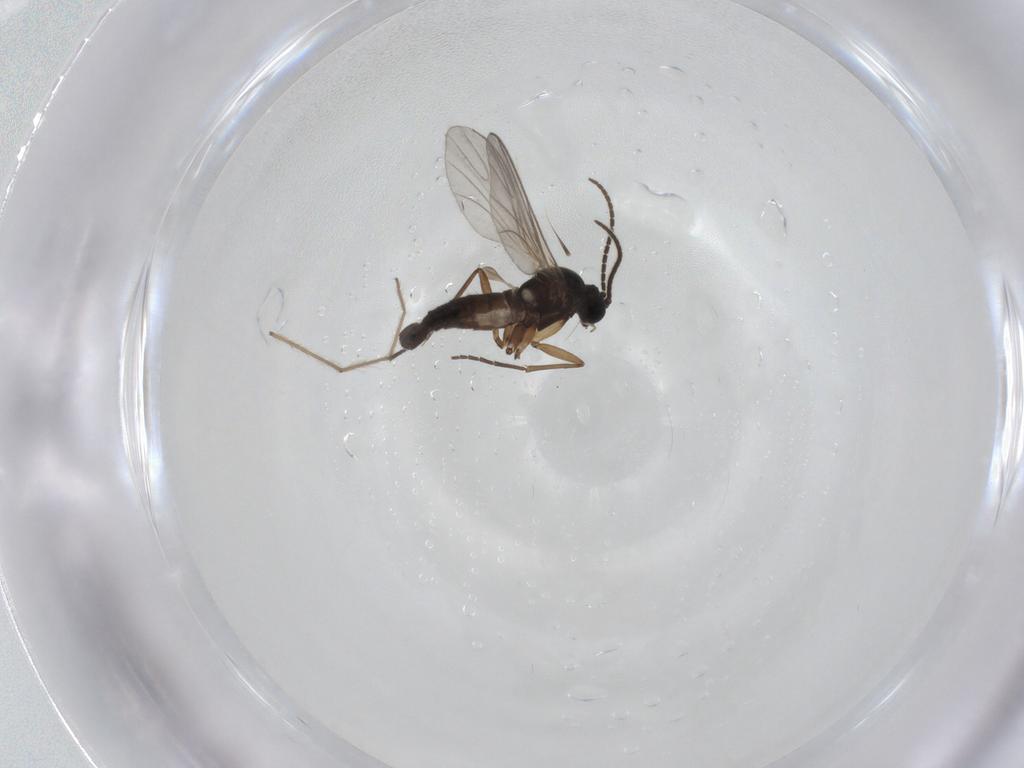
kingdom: Animalia
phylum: Arthropoda
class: Insecta
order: Diptera
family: Sciaridae
